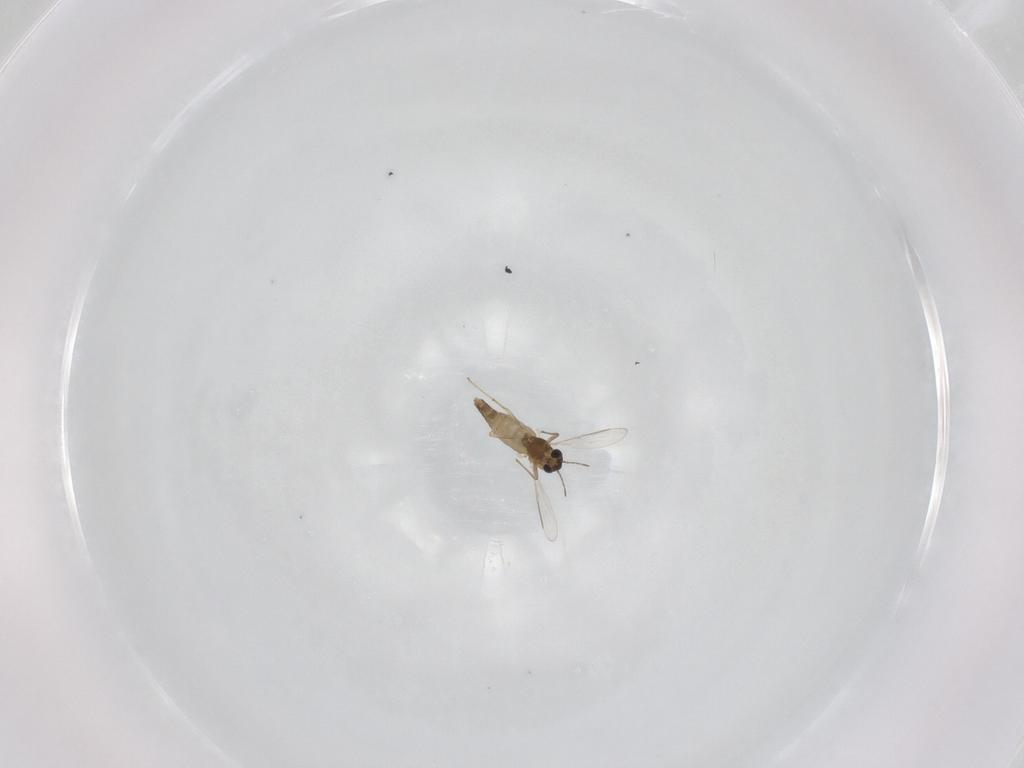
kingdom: Animalia
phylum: Arthropoda
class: Insecta
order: Diptera
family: Chironomidae
